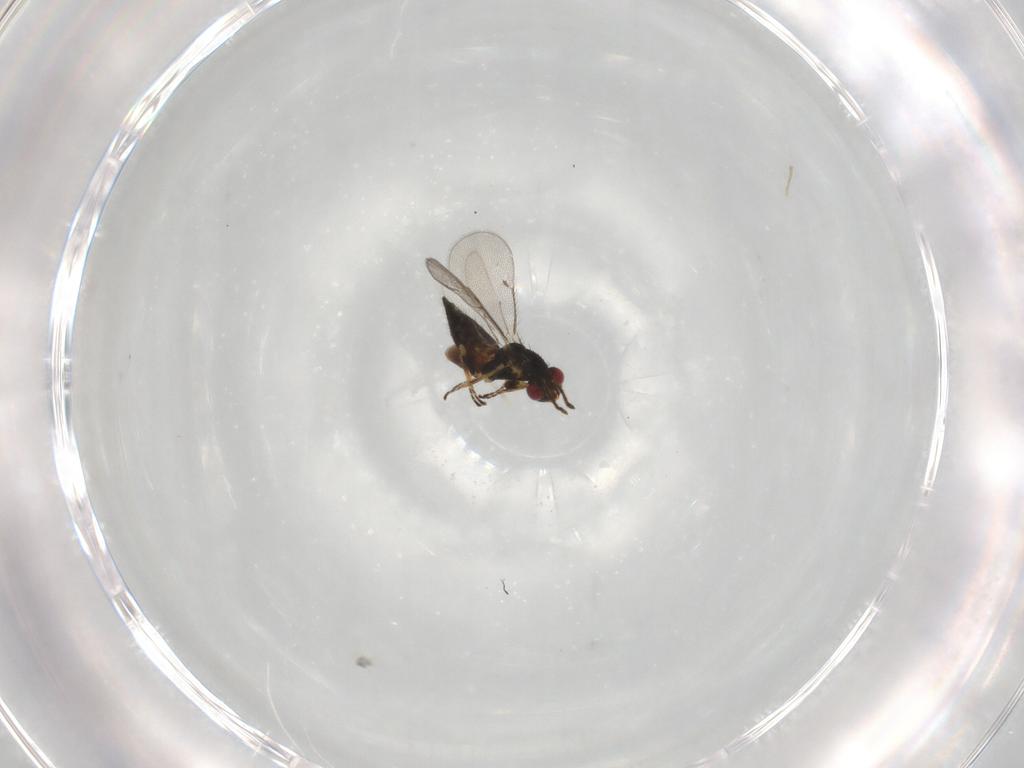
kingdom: Animalia
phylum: Arthropoda
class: Insecta
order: Hymenoptera
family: Eulophidae
